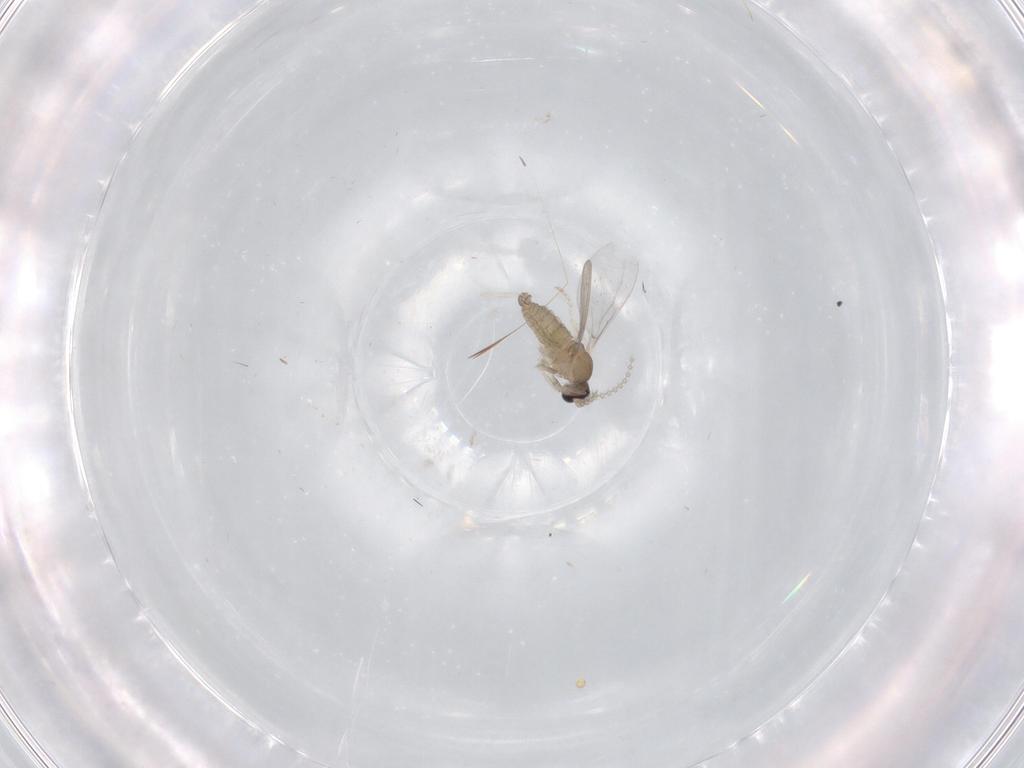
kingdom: Animalia
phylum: Arthropoda
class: Insecta
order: Diptera
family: Cecidomyiidae
